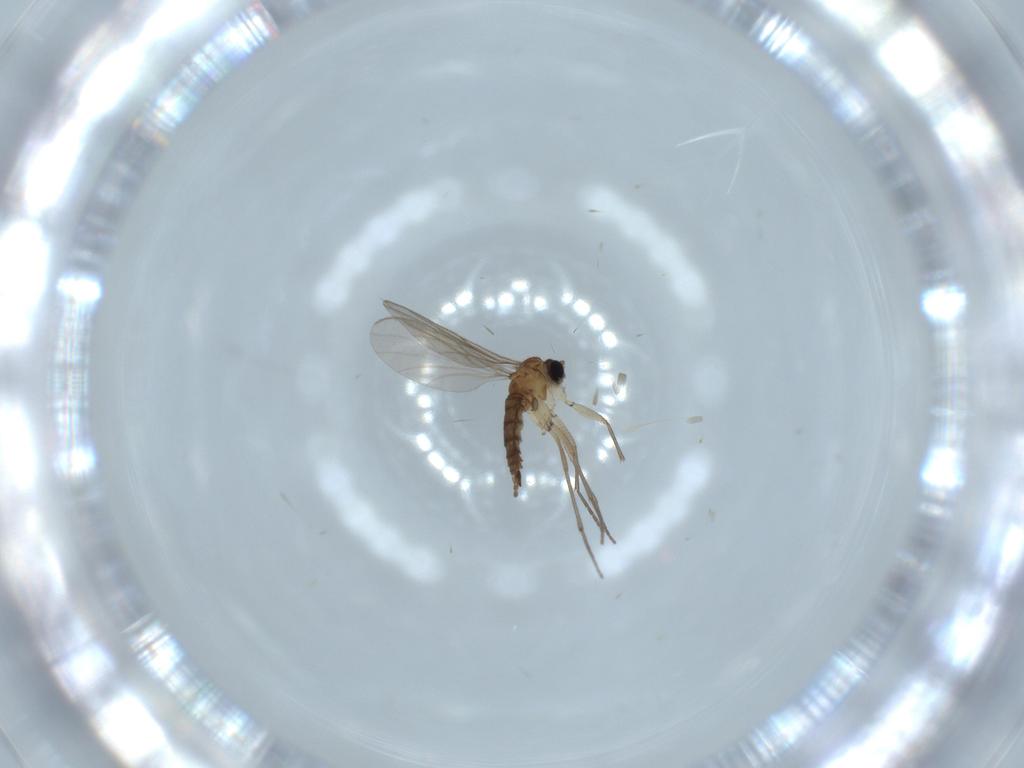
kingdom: Animalia
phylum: Arthropoda
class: Insecta
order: Diptera
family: Sciaridae
